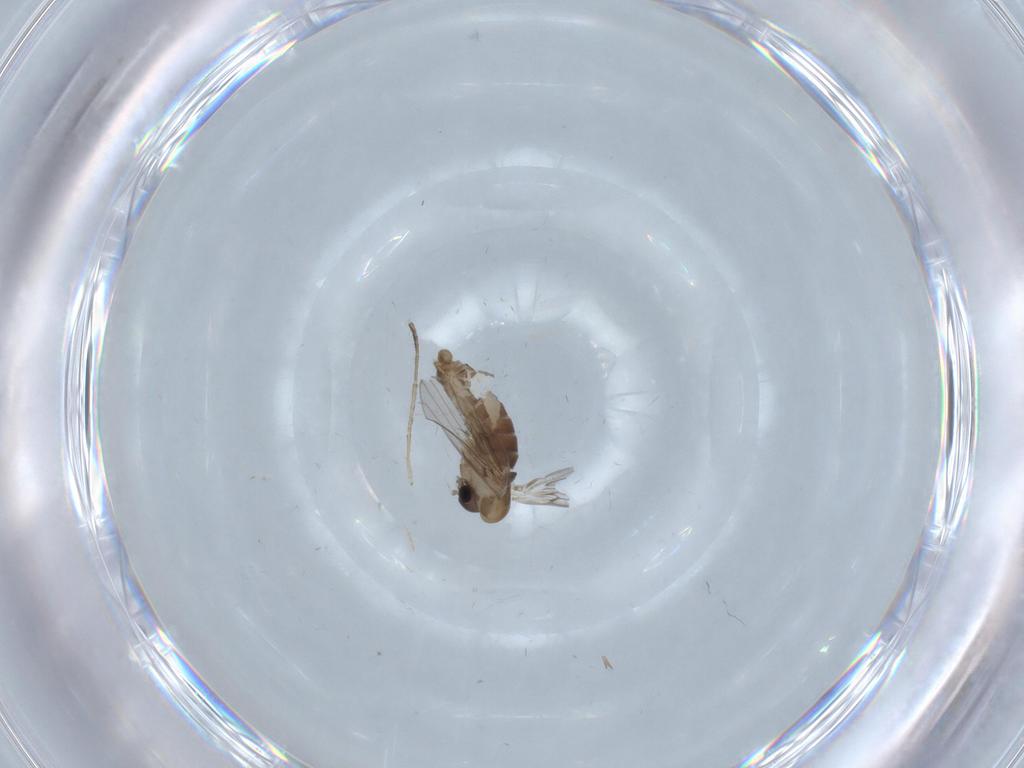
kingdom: Animalia
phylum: Arthropoda
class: Insecta
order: Diptera
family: Psychodidae
